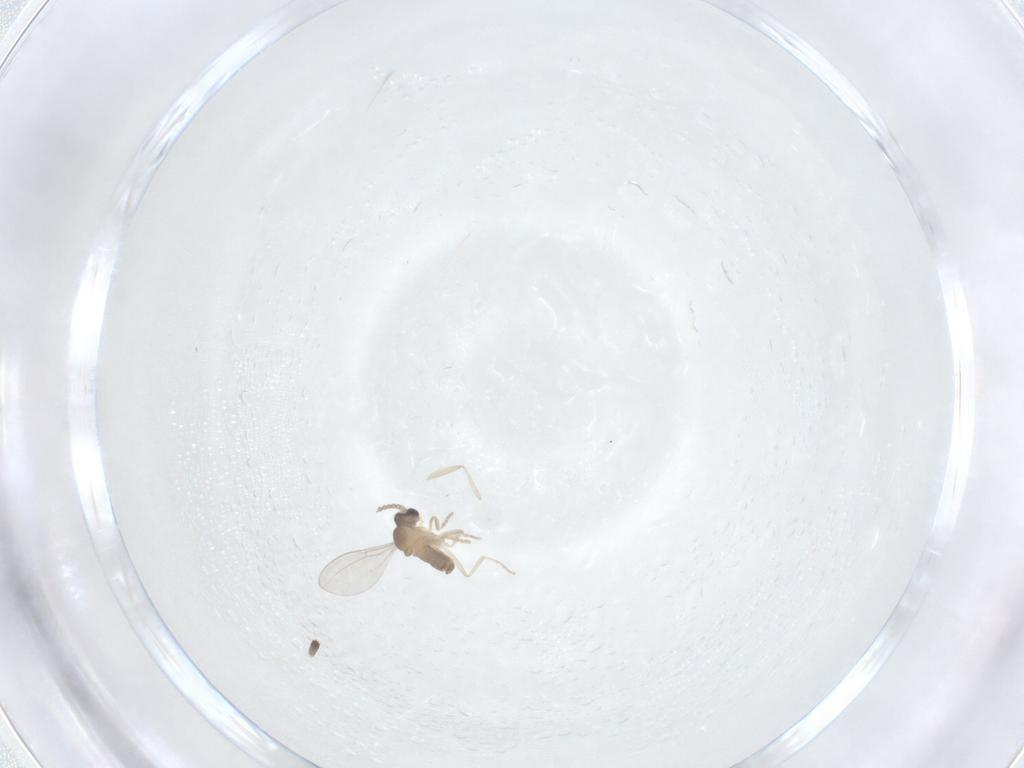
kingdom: Animalia
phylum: Arthropoda
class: Insecta
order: Diptera
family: Cecidomyiidae
